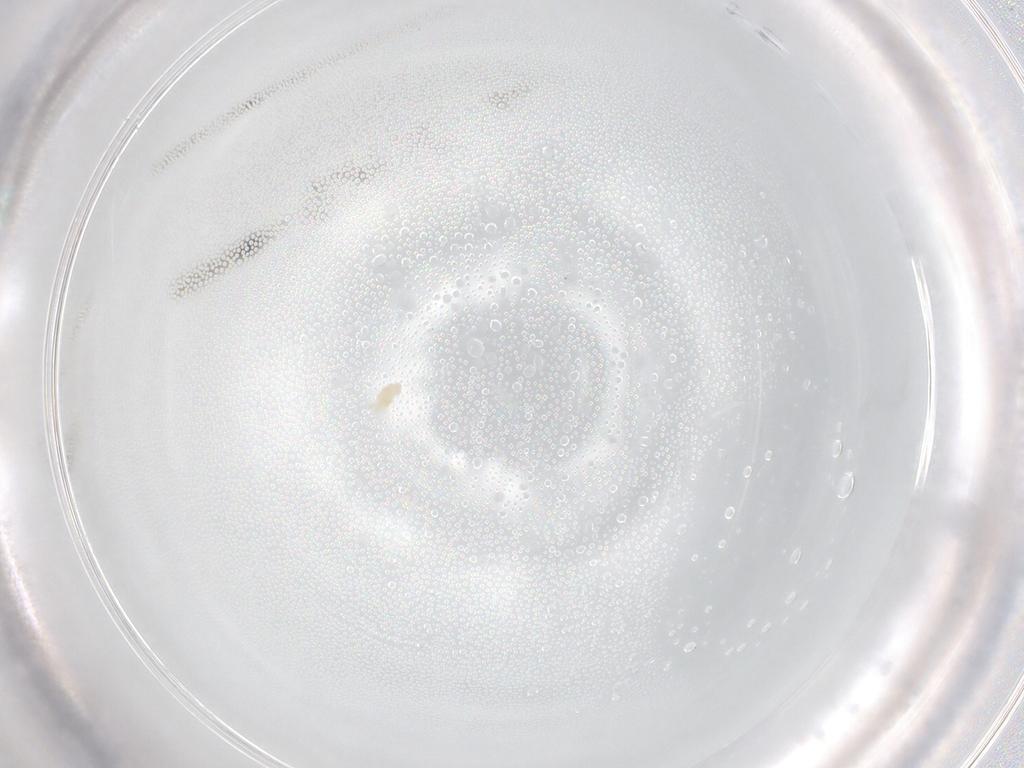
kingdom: Animalia
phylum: Arthropoda
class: Arachnida
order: Trombidiformes
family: Eupodidae
